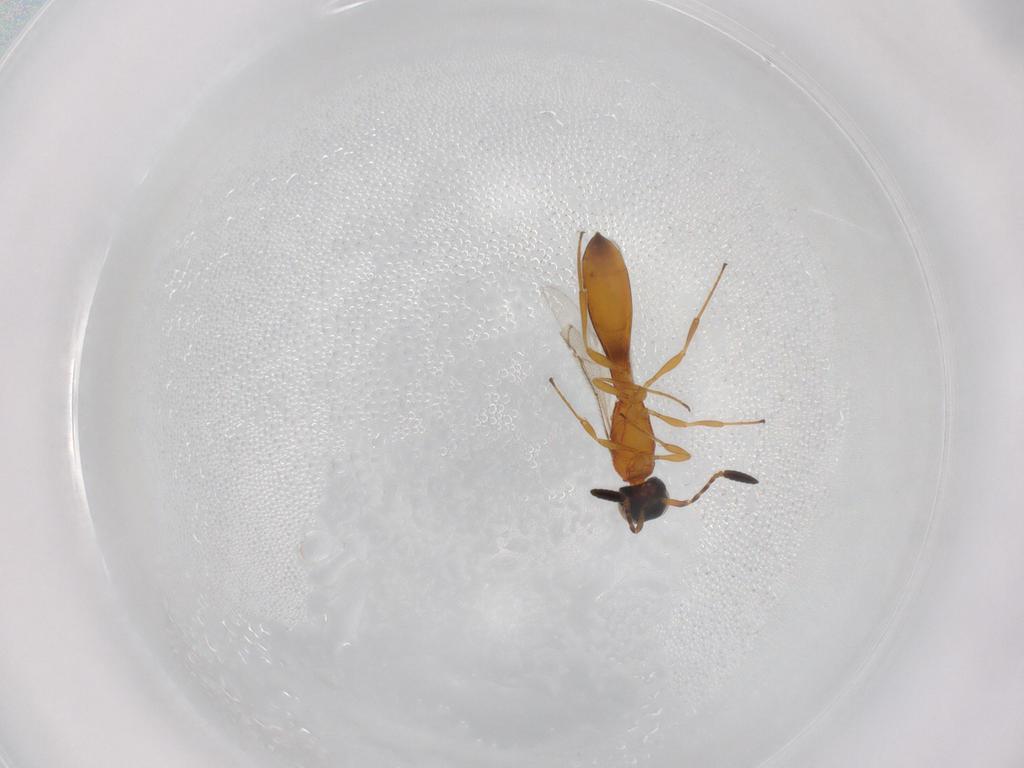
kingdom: Animalia
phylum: Arthropoda
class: Insecta
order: Hymenoptera
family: Scelionidae
